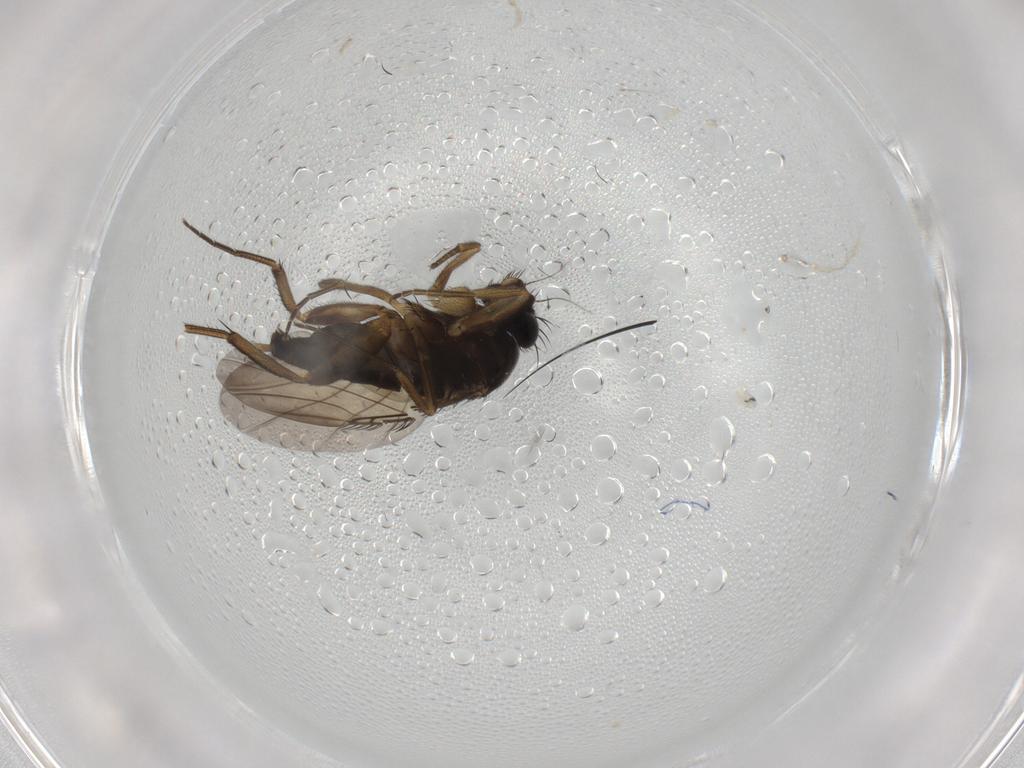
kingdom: Animalia
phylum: Arthropoda
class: Insecta
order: Diptera
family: Phoridae
